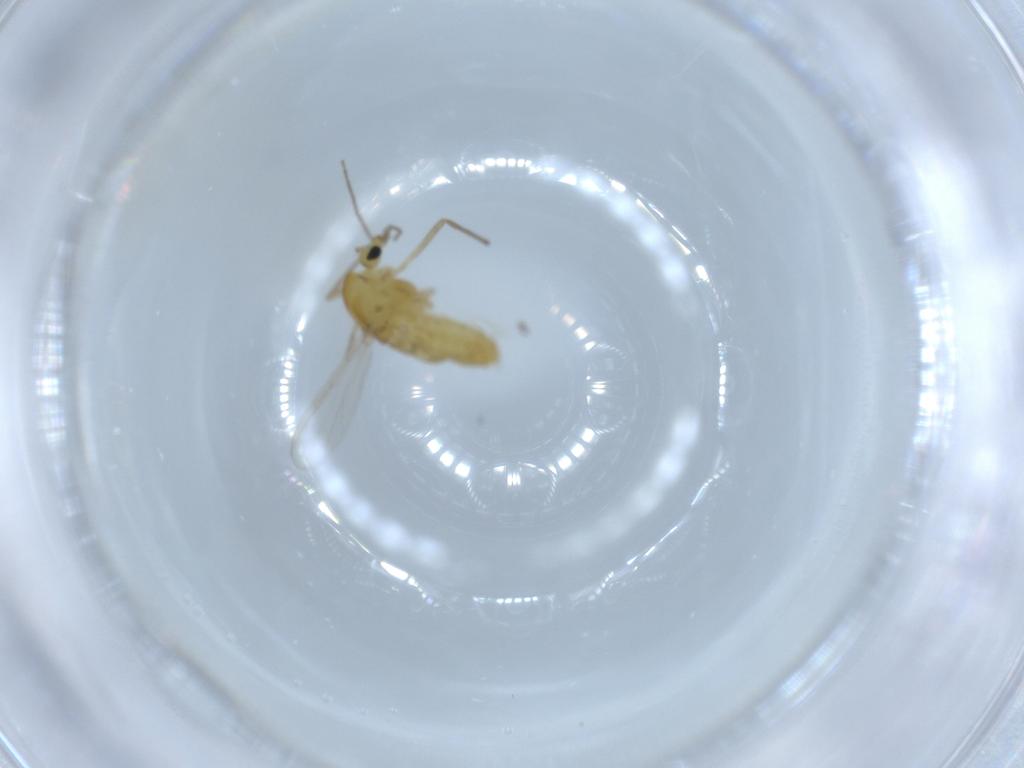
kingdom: Animalia
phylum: Arthropoda
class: Insecta
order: Diptera
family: Chironomidae
